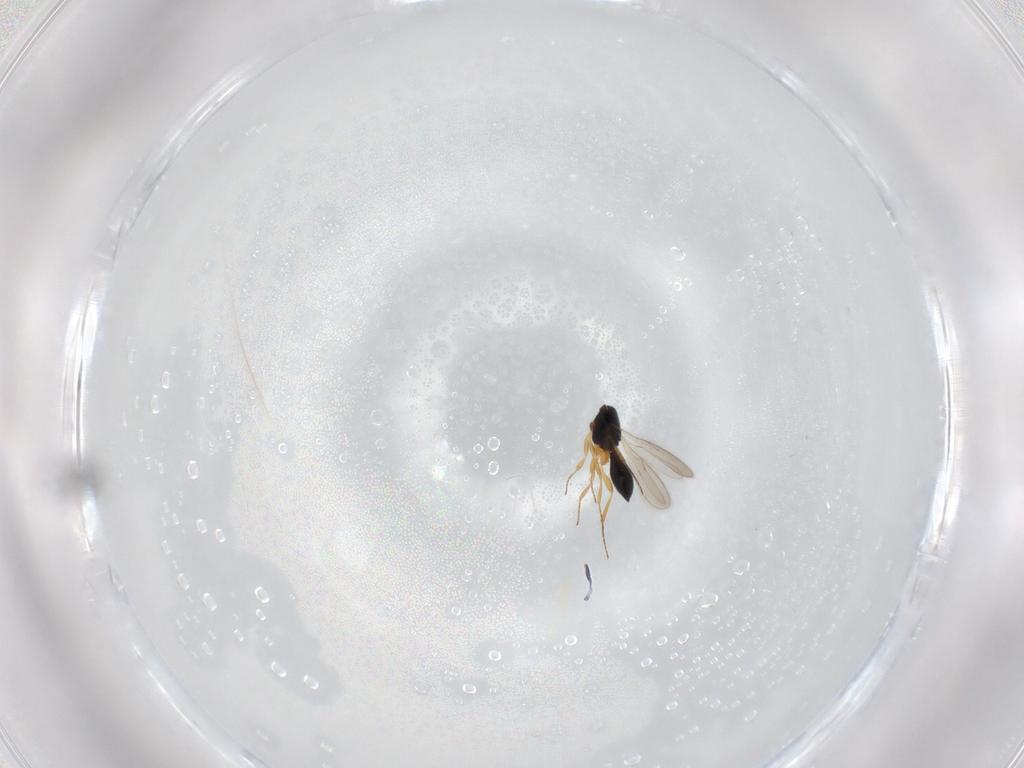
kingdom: Animalia
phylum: Arthropoda
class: Insecta
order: Hymenoptera
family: Scelionidae
